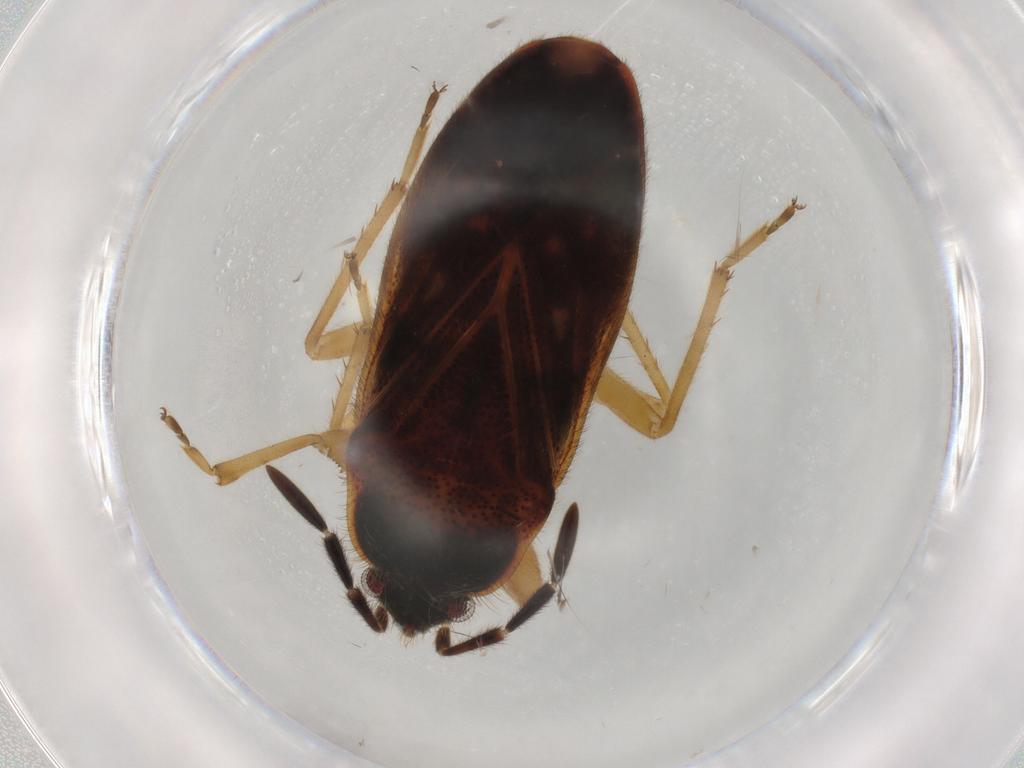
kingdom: Animalia
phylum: Arthropoda
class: Insecta
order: Hemiptera
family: Rhyparochromidae
